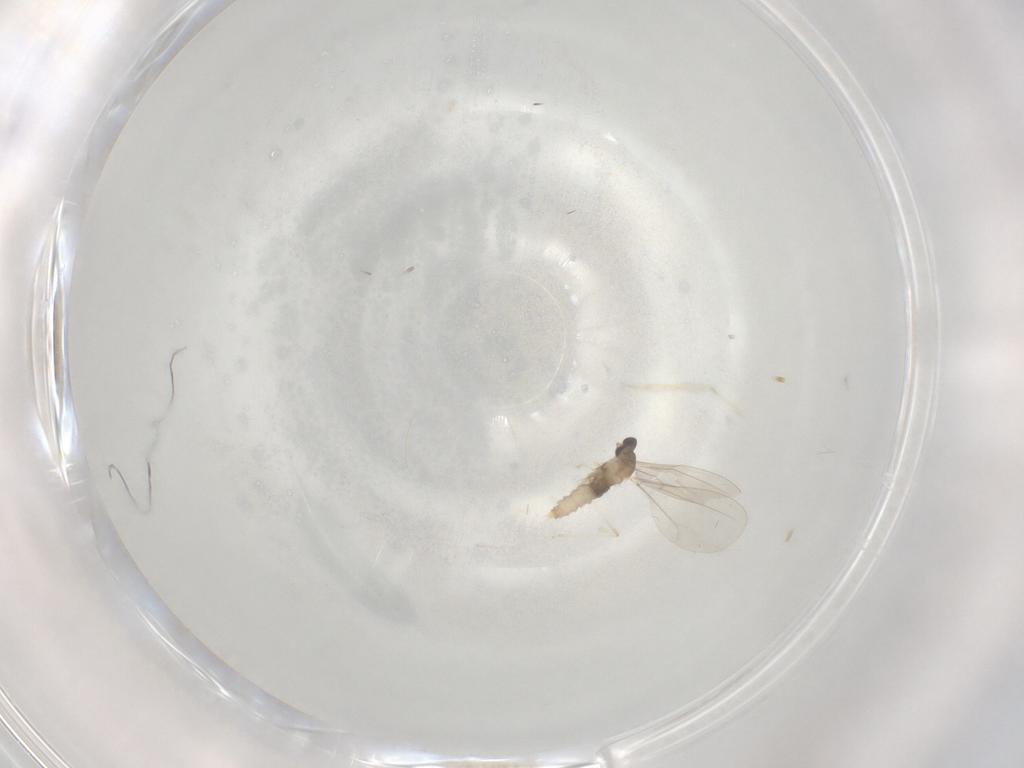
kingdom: Animalia
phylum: Arthropoda
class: Insecta
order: Diptera
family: Cecidomyiidae
